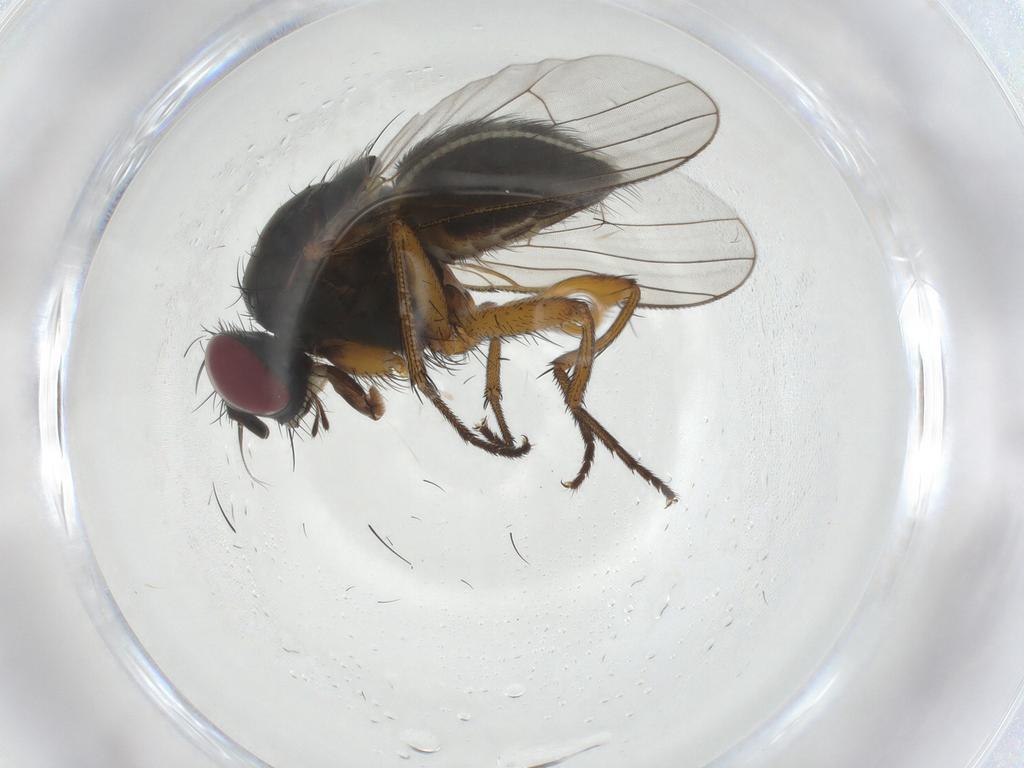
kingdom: Animalia
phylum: Arthropoda
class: Insecta
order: Diptera
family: Muscidae
